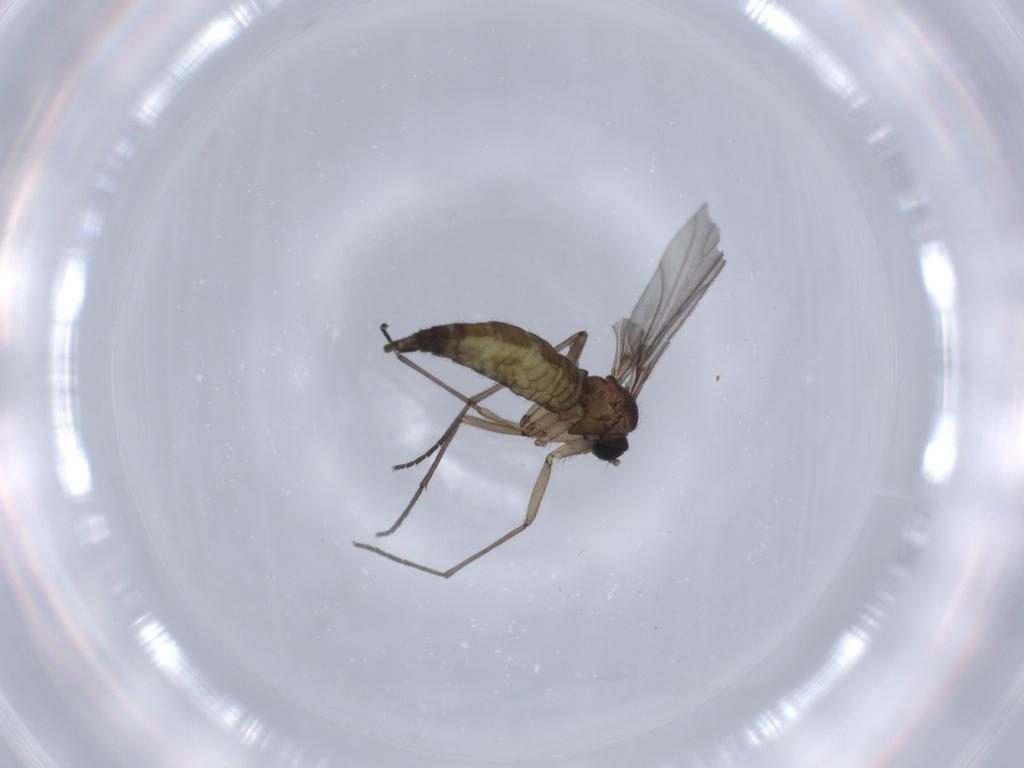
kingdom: Animalia
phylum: Arthropoda
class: Insecta
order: Diptera
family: Sciaridae
